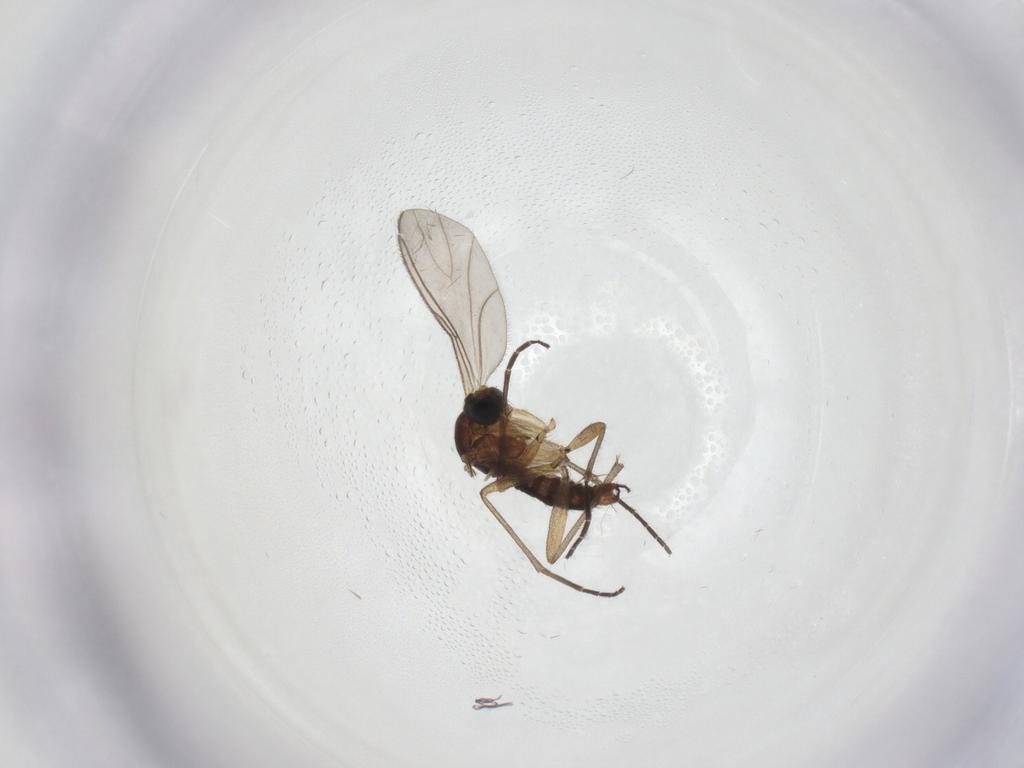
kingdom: Animalia
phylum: Arthropoda
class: Insecta
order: Diptera
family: Sciaridae
